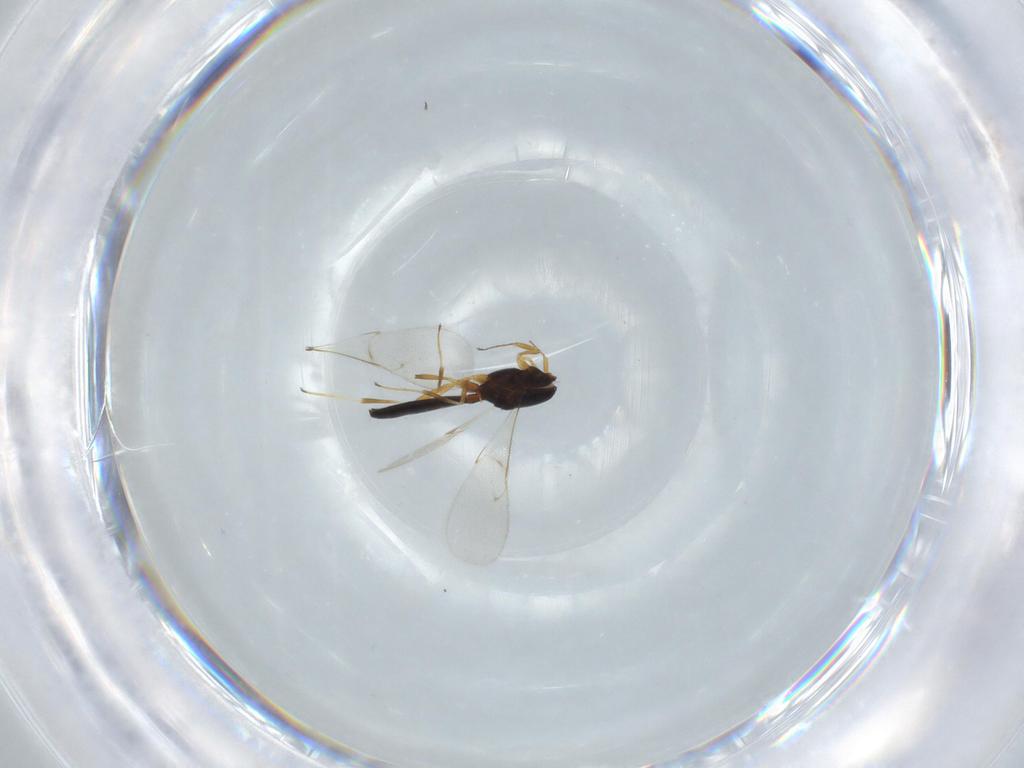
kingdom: Animalia
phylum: Arthropoda
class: Insecta
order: Hymenoptera
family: Scelionidae
